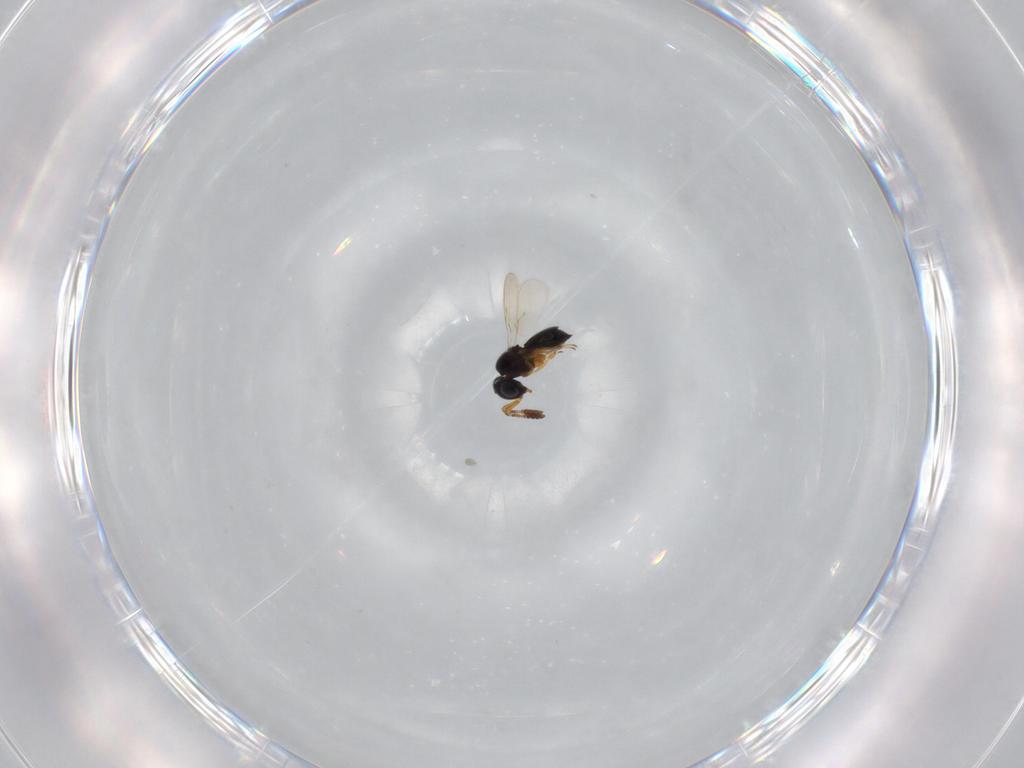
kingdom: Animalia
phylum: Arthropoda
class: Insecta
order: Hymenoptera
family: Scelionidae
